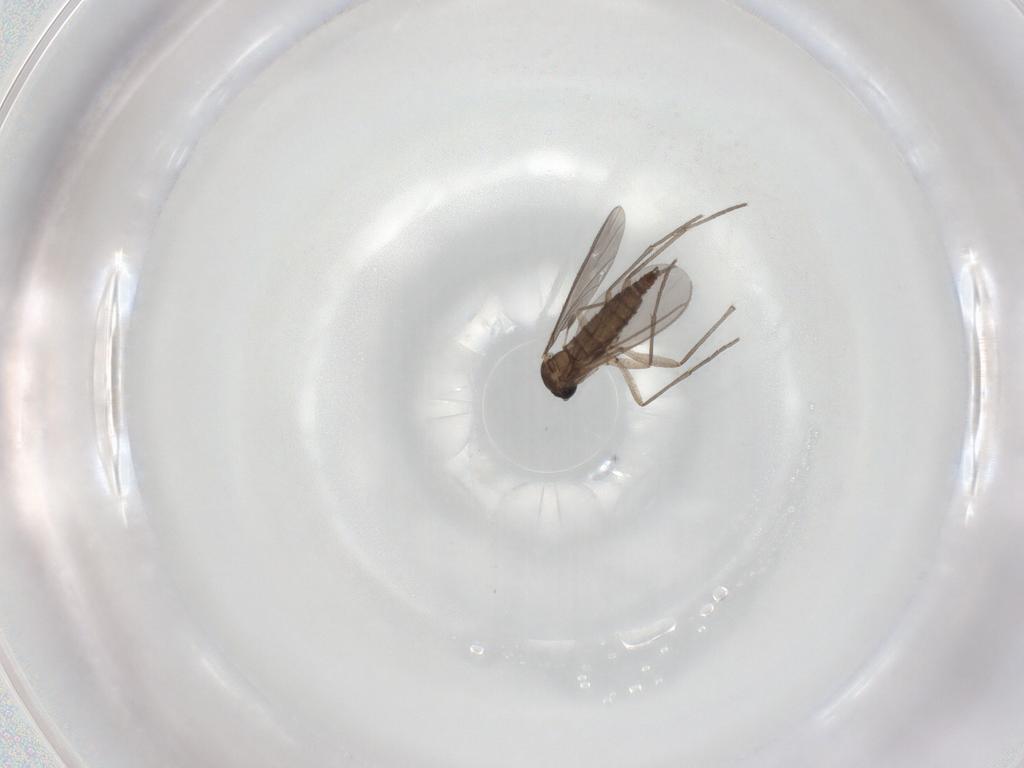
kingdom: Animalia
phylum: Arthropoda
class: Insecta
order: Diptera
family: Sciaridae
